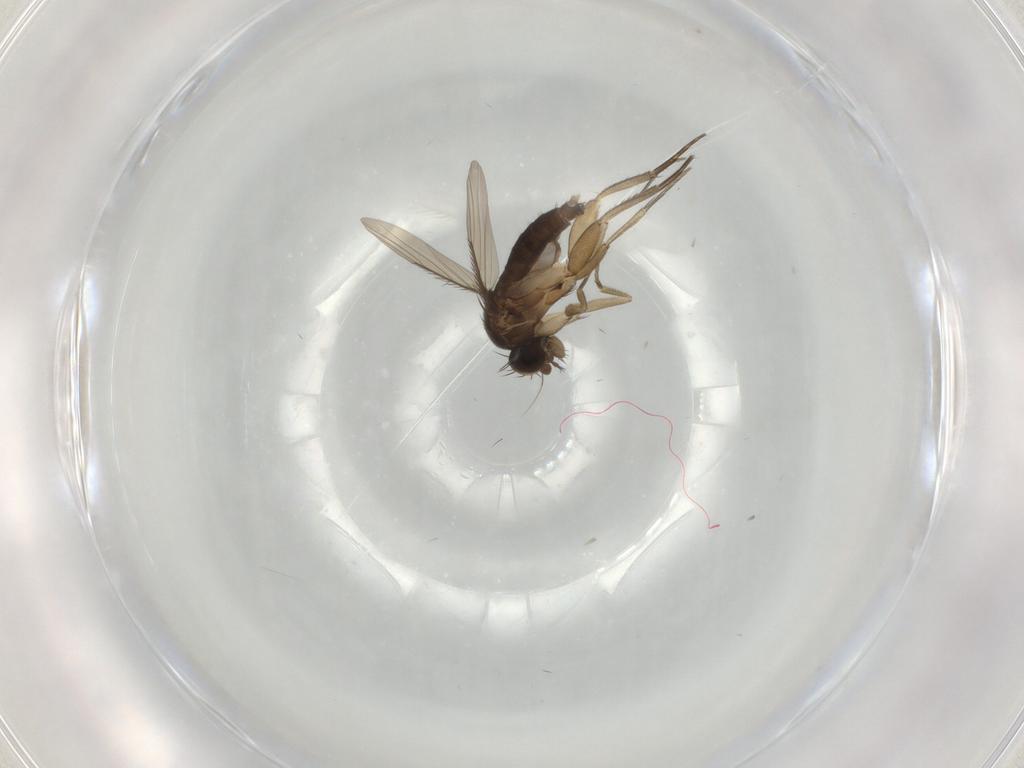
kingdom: Animalia
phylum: Arthropoda
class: Insecta
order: Diptera
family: Phoridae
